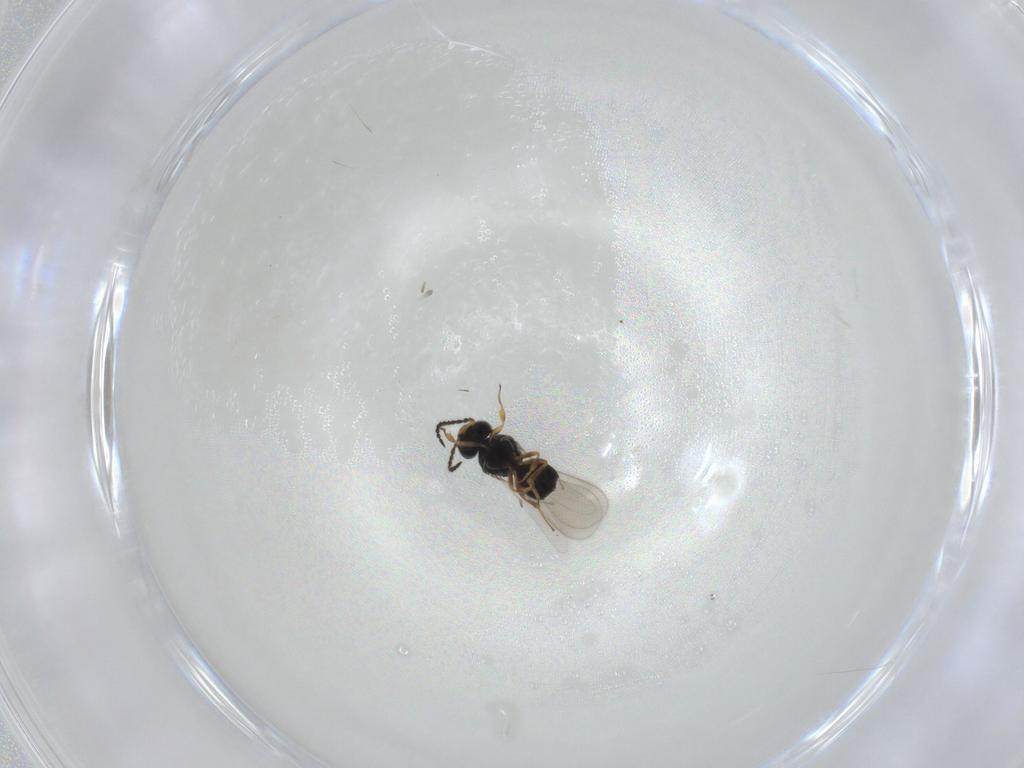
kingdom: Animalia
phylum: Arthropoda
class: Insecta
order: Hymenoptera
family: Scelionidae
